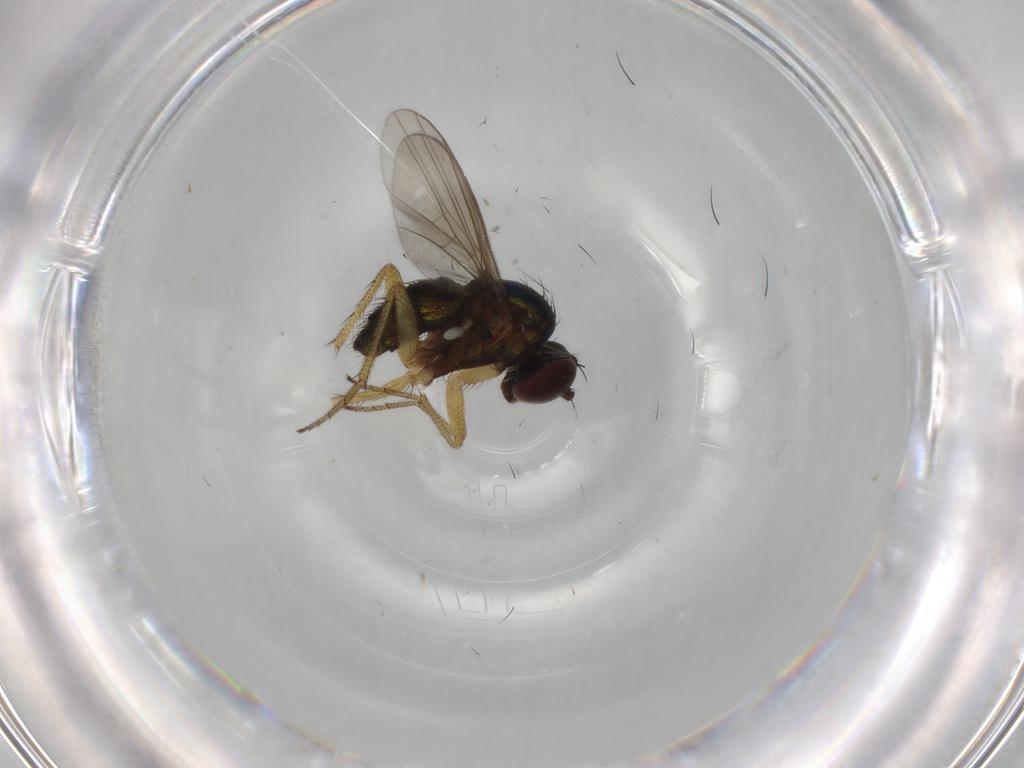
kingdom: Animalia
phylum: Arthropoda
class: Insecta
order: Diptera
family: Dolichopodidae
